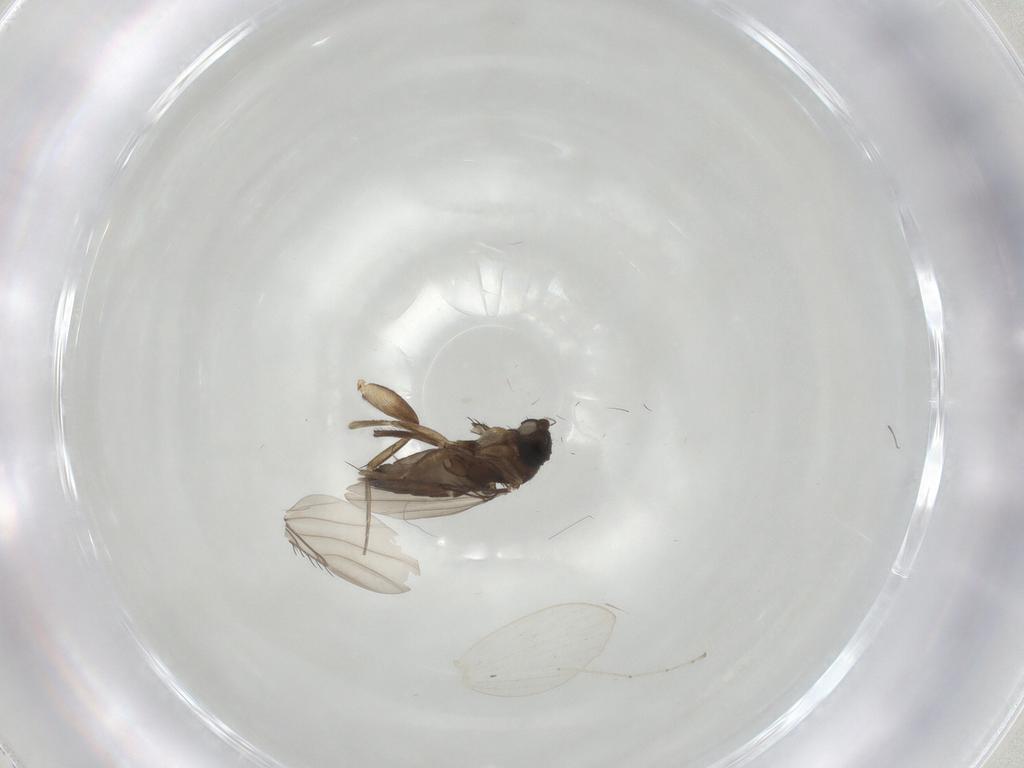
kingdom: Animalia
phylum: Arthropoda
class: Insecta
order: Diptera
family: Phoridae
